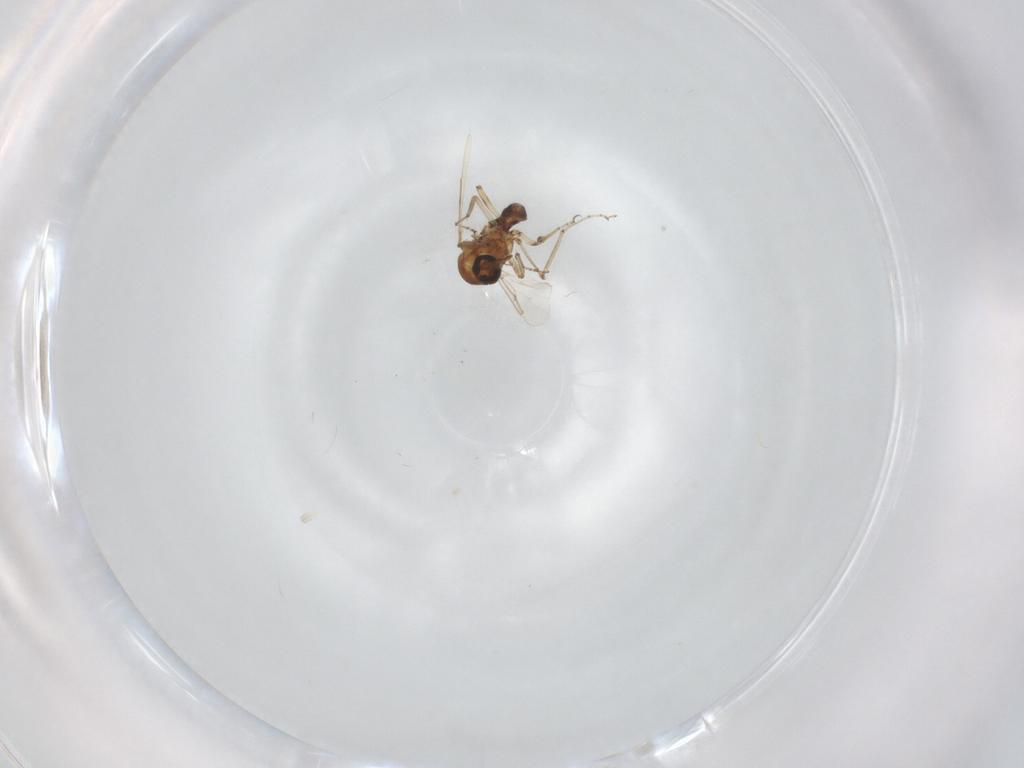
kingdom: Animalia
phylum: Arthropoda
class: Insecta
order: Diptera
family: Ceratopogonidae
